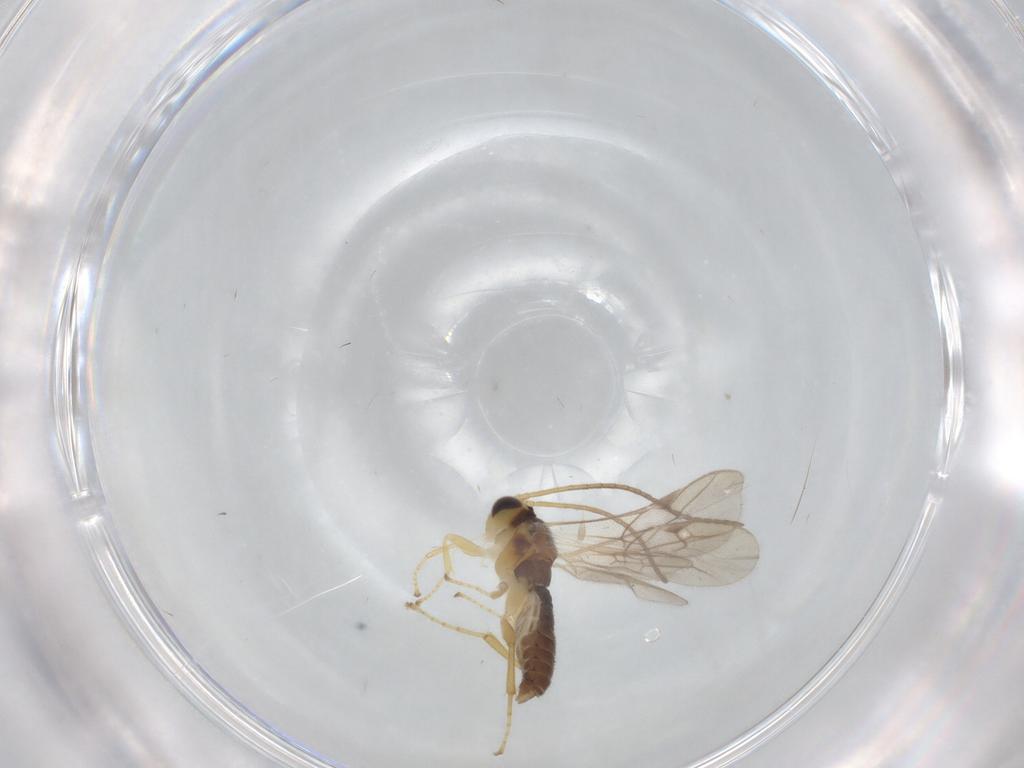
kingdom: Animalia
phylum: Arthropoda
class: Insecta
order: Hymenoptera
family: Ichneumonidae
